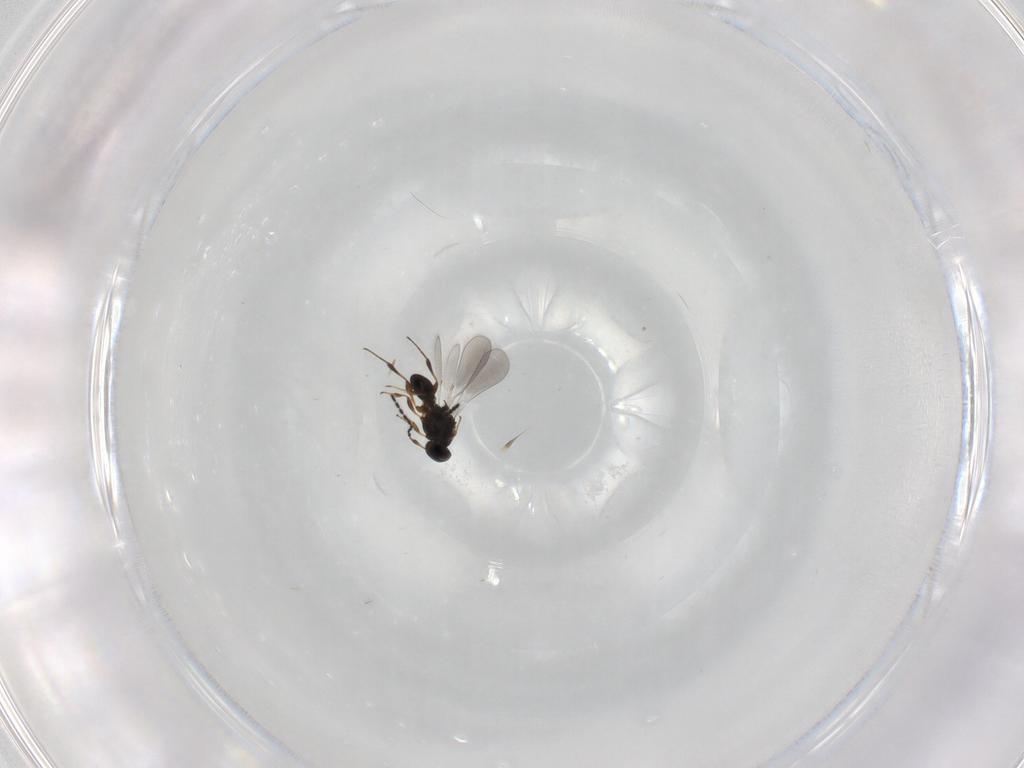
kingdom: Animalia
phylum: Arthropoda
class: Insecta
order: Hymenoptera
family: Platygastridae
